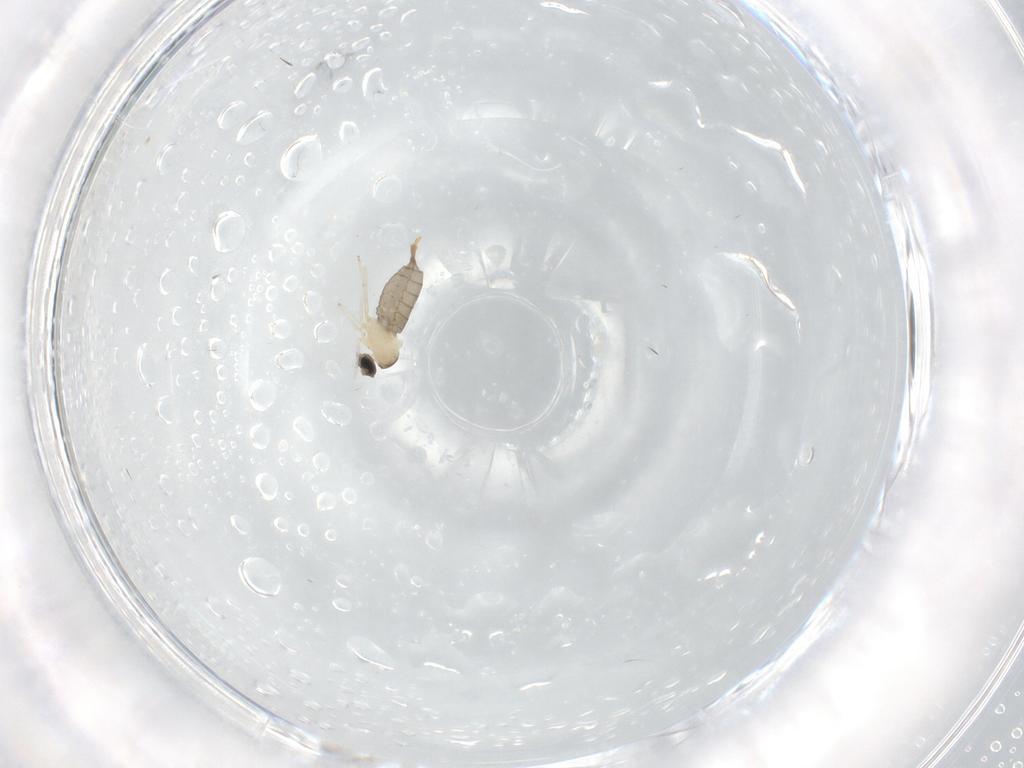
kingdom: Animalia
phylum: Arthropoda
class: Insecta
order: Diptera
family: Cecidomyiidae
